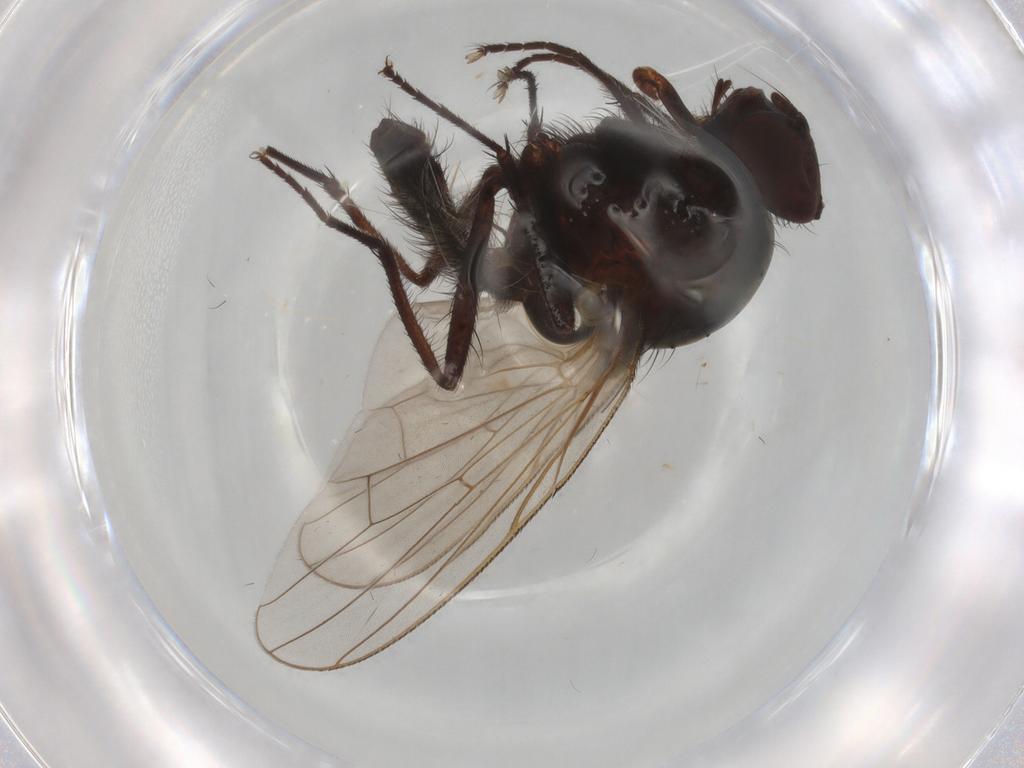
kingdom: Animalia
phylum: Arthropoda
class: Insecta
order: Diptera
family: Anthomyiidae
